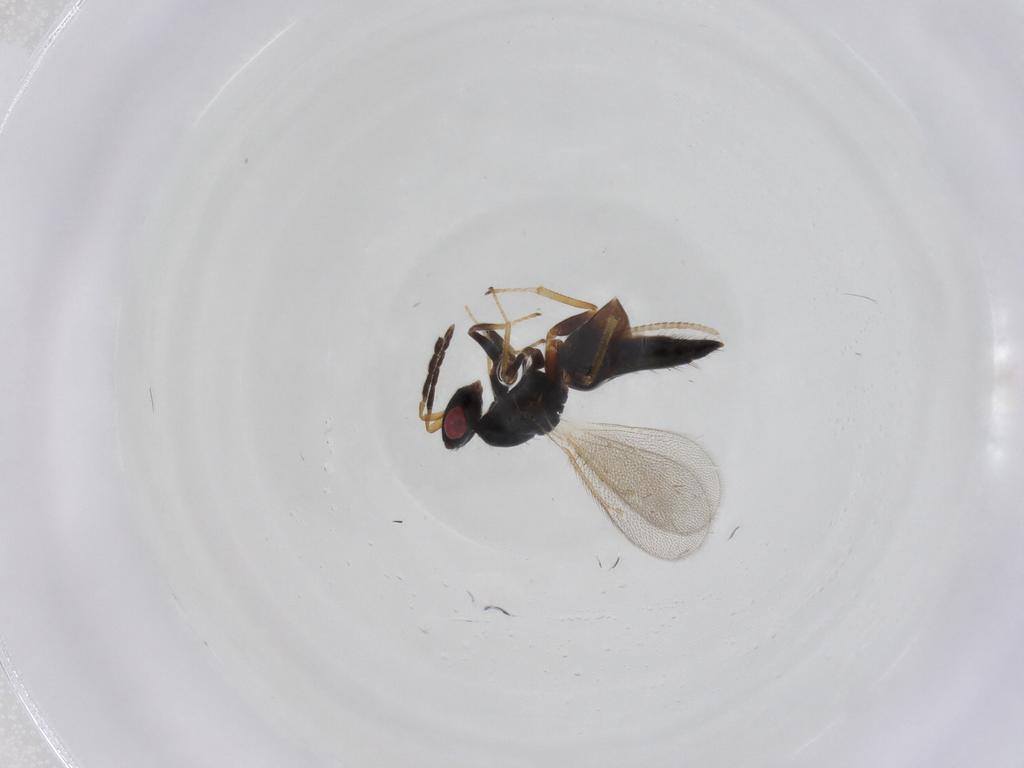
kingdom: Animalia
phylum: Arthropoda
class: Insecta
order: Hymenoptera
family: Eulophidae
